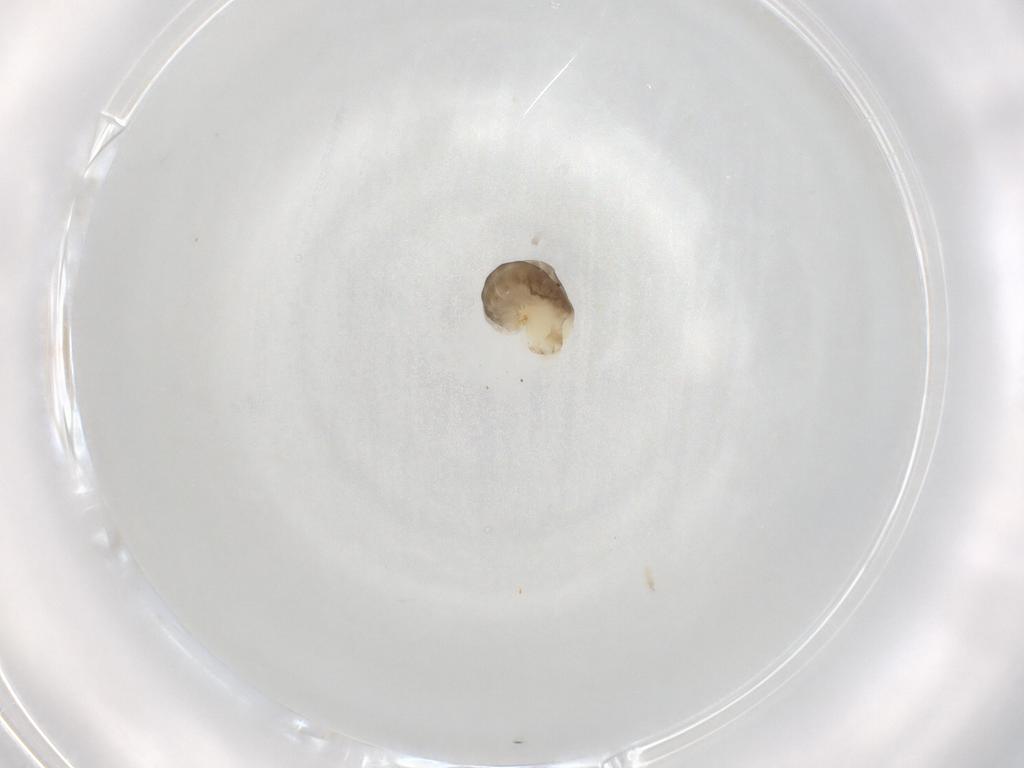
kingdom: Animalia
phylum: Arthropoda
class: Insecta
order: Hymenoptera
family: Dryinidae
